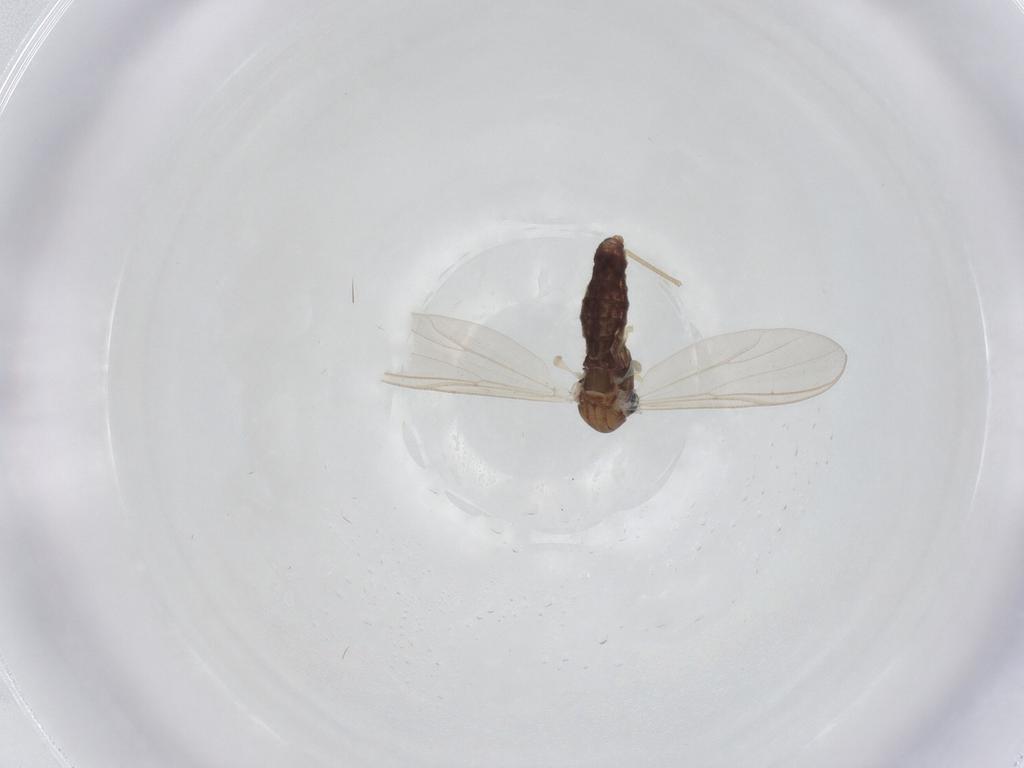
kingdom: Animalia
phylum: Arthropoda
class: Insecta
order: Diptera
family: Chironomidae
